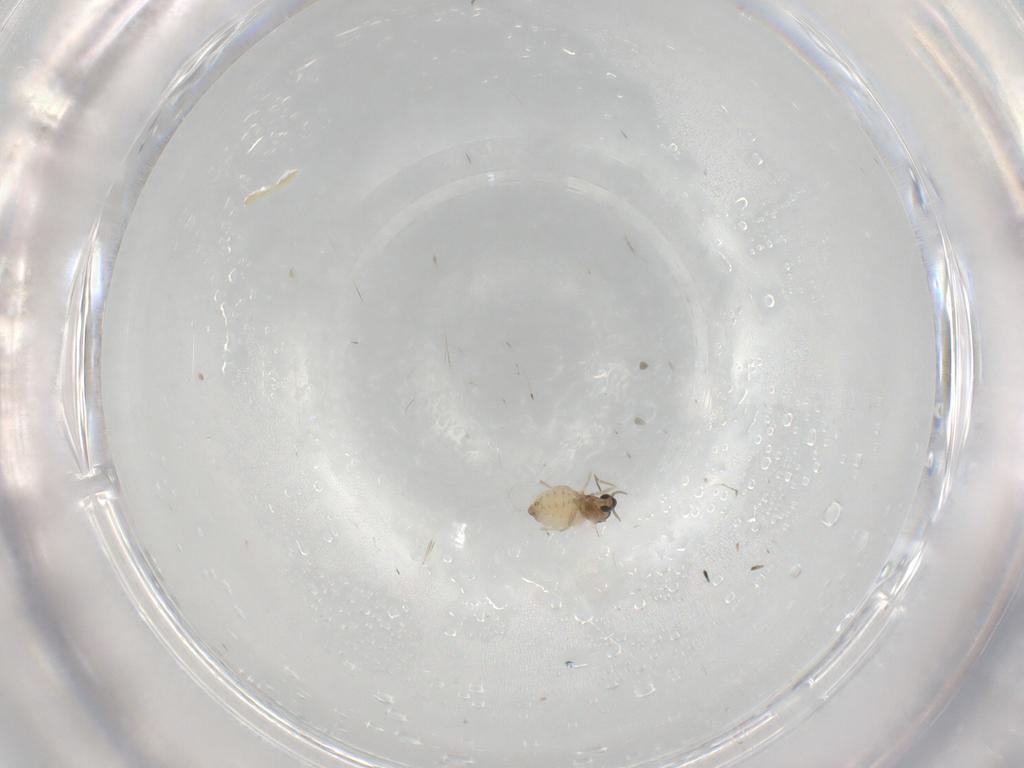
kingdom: Animalia
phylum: Arthropoda
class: Insecta
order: Diptera
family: Cecidomyiidae
